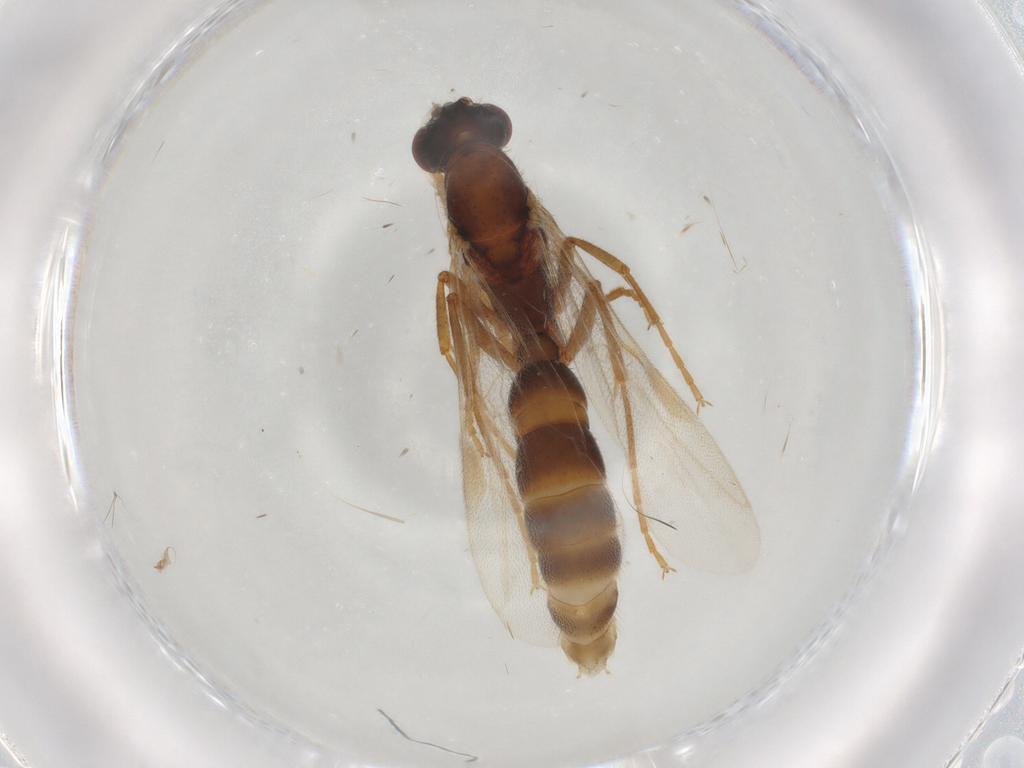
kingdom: Animalia
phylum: Arthropoda
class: Insecta
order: Hymenoptera
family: Formicidae
